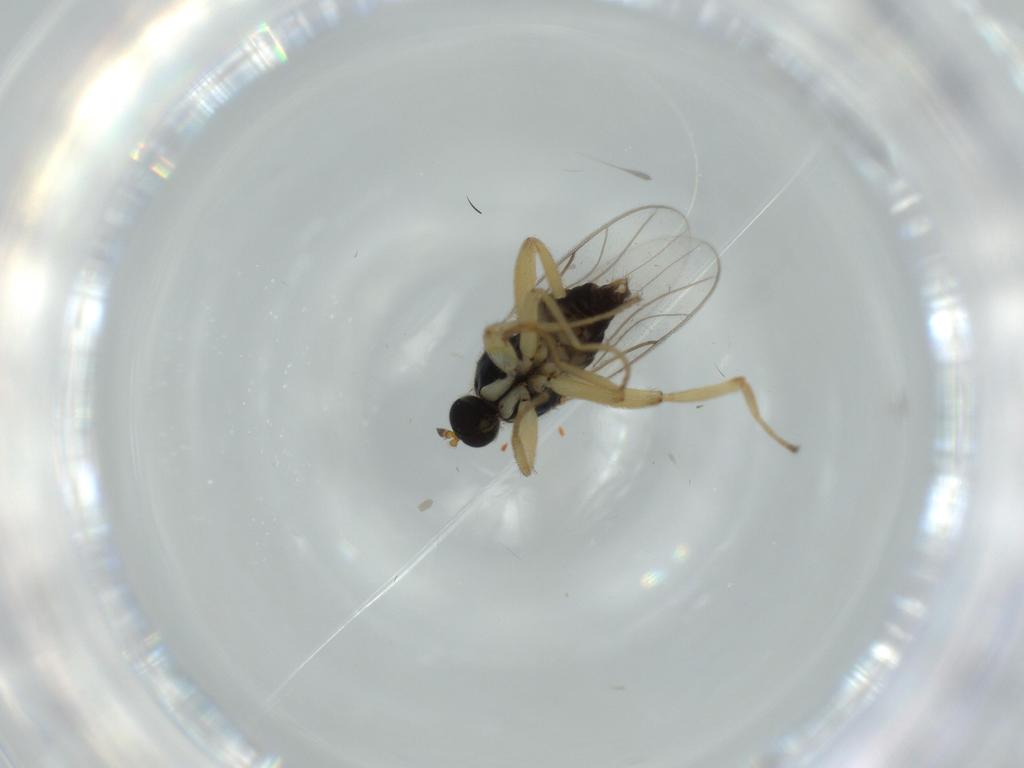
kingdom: Animalia
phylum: Arthropoda
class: Insecta
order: Diptera
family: Hybotidae
